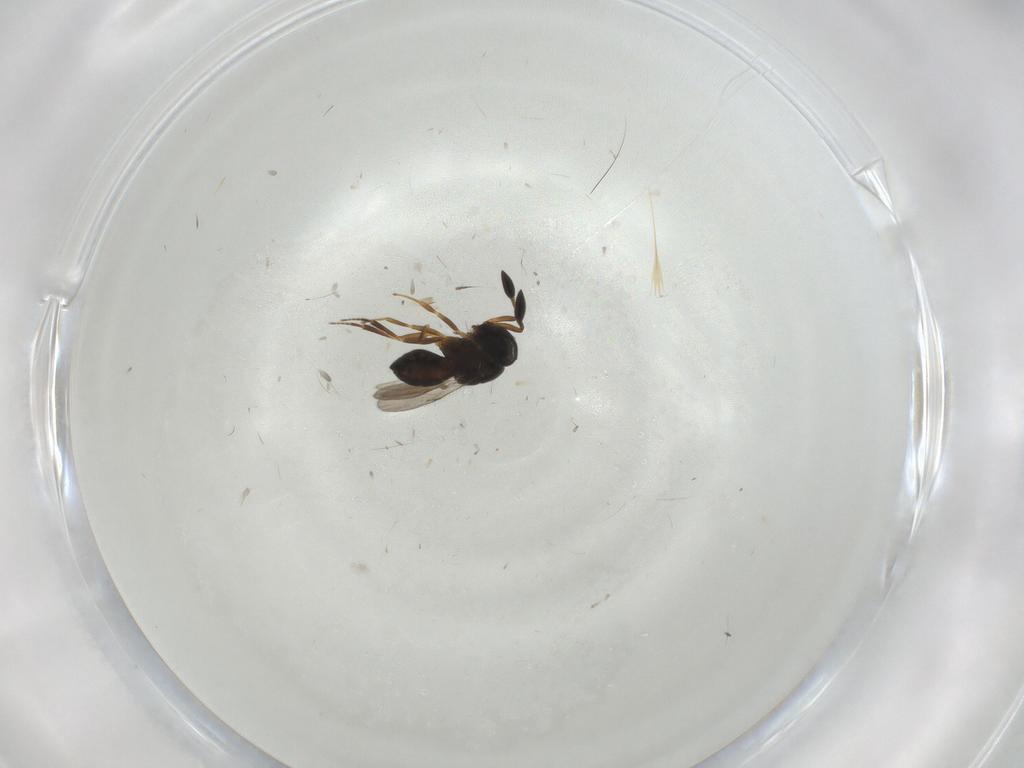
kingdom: Animalia
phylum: Arthropoda
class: Insecta
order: Hymenoptera
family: Scelionidae
